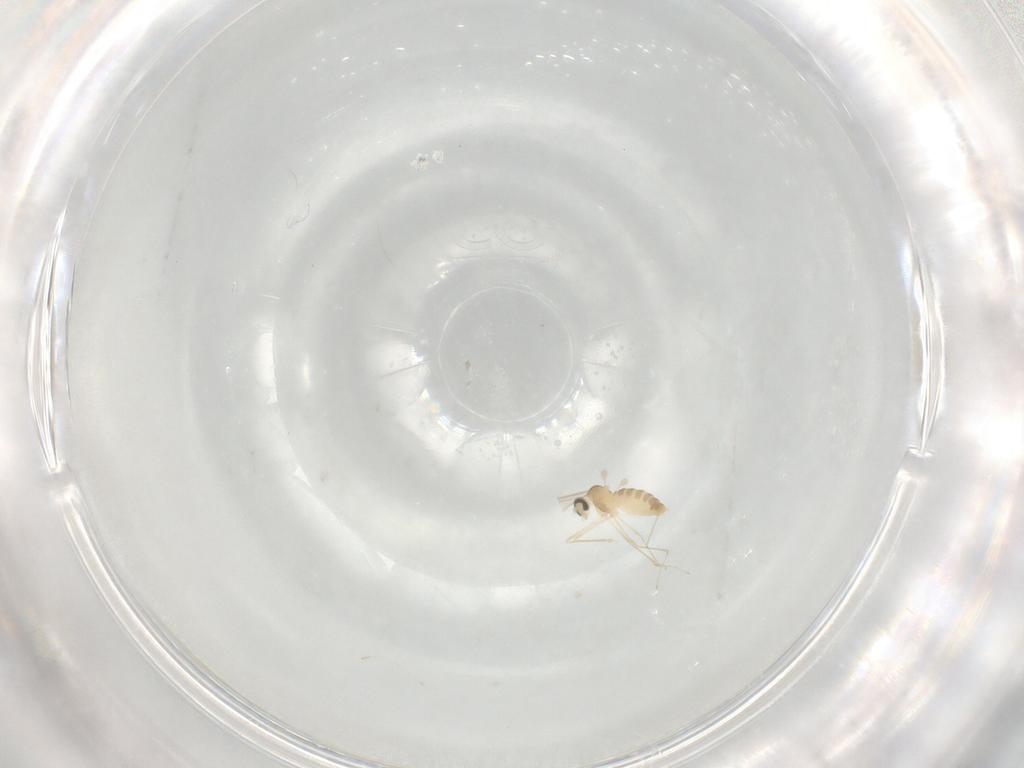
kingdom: Animalia
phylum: Arthropoda
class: Insecta
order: Diptera
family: Cecidomyiidae
